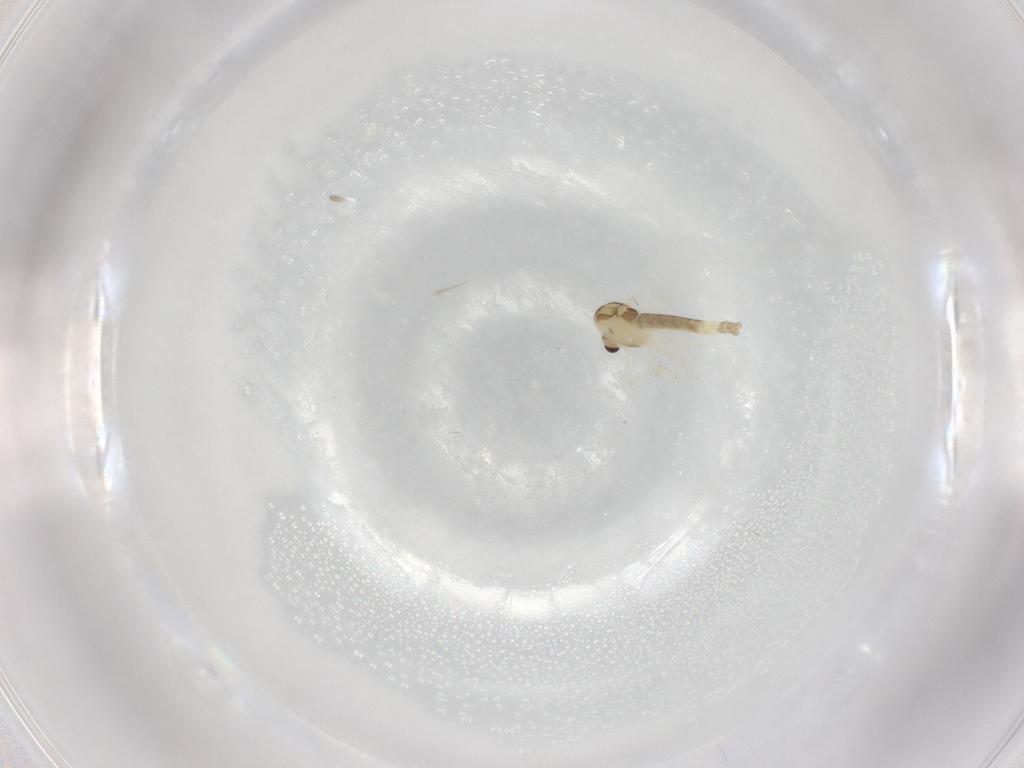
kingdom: Animalia
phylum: Arthropoda
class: Insecta
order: Diptera
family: Chironomidae
